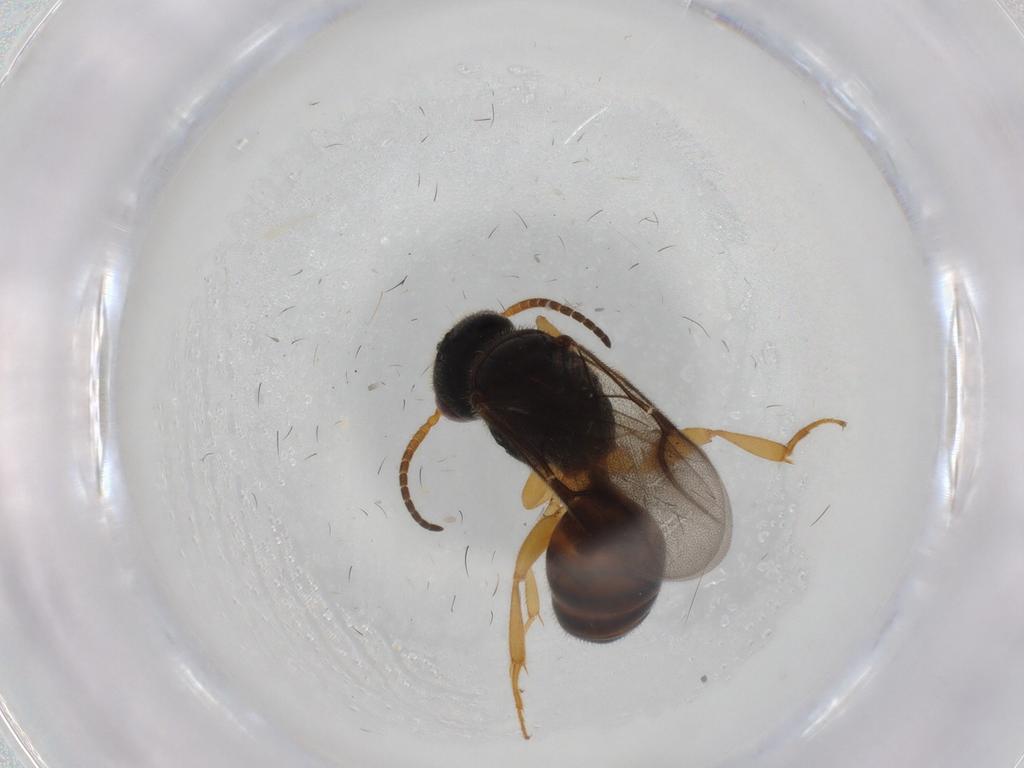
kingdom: Animalia
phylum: Arthropoda
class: Insecta
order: Hymenoptera
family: Bethylidae
